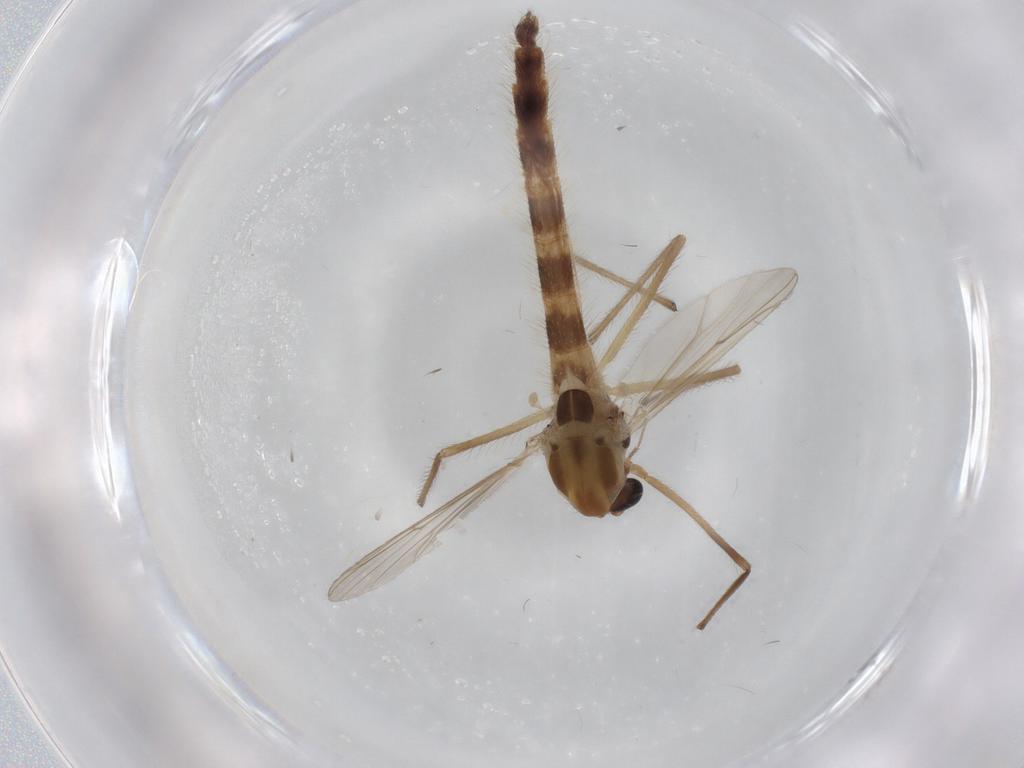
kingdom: Animalia
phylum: Arthropoda
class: Insecta
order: Diptera
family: Chironomidae
